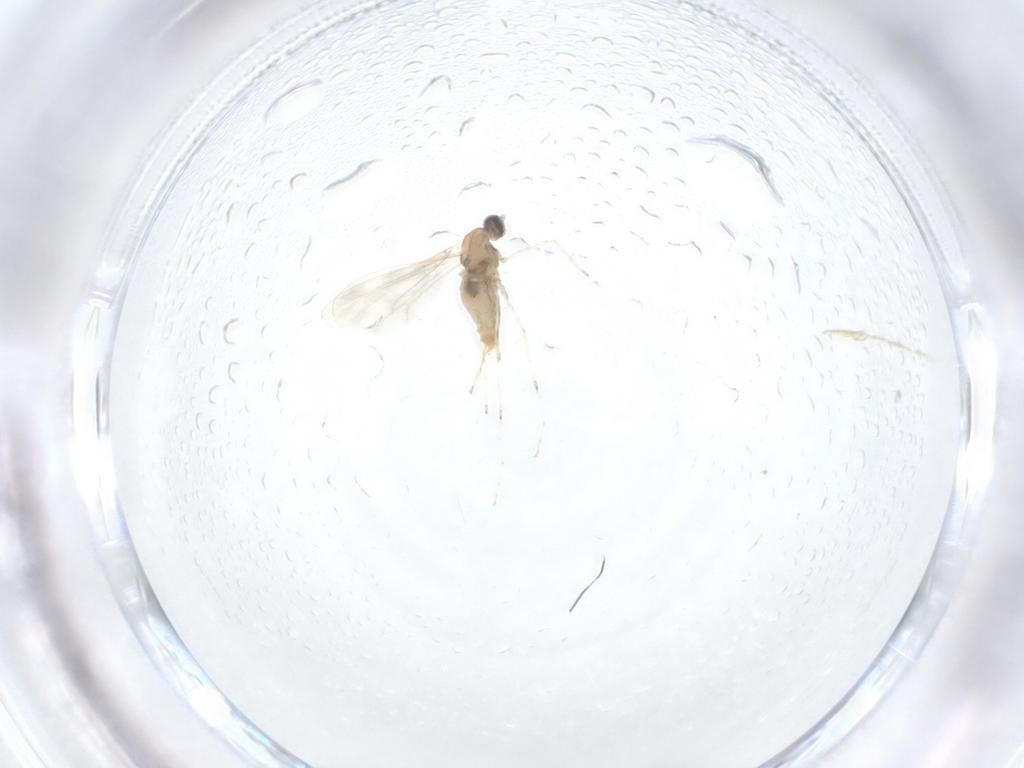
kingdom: Animalia
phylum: Arthropoda
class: Insecta
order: Diptera
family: Cecidomyiidae
